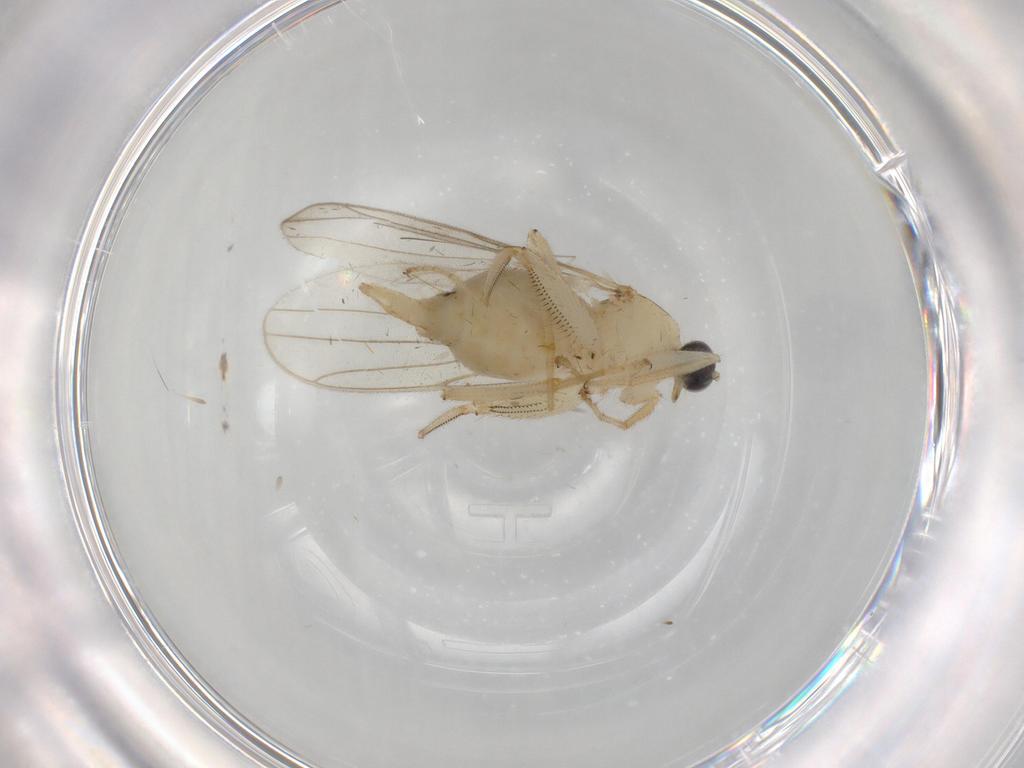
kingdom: Animalia
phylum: Arthropoda
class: Insecta
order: Diptera
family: Hybotidae
